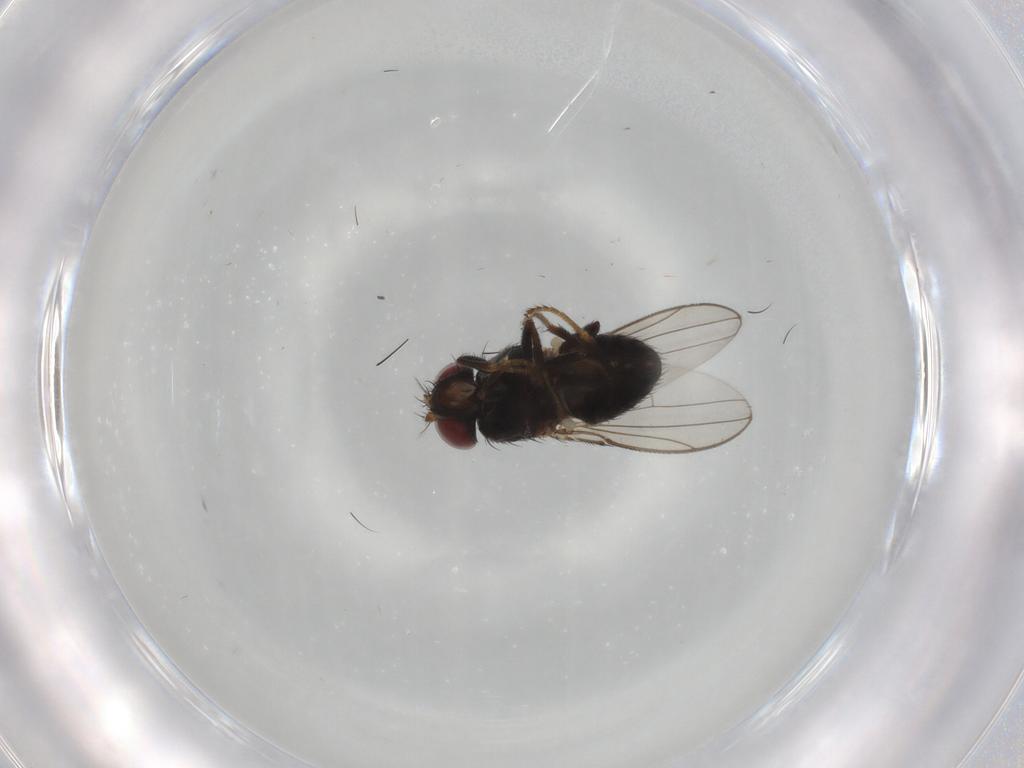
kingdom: Animalia
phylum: Arthropoda
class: Insecta
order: Diptera
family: Ephydridae
